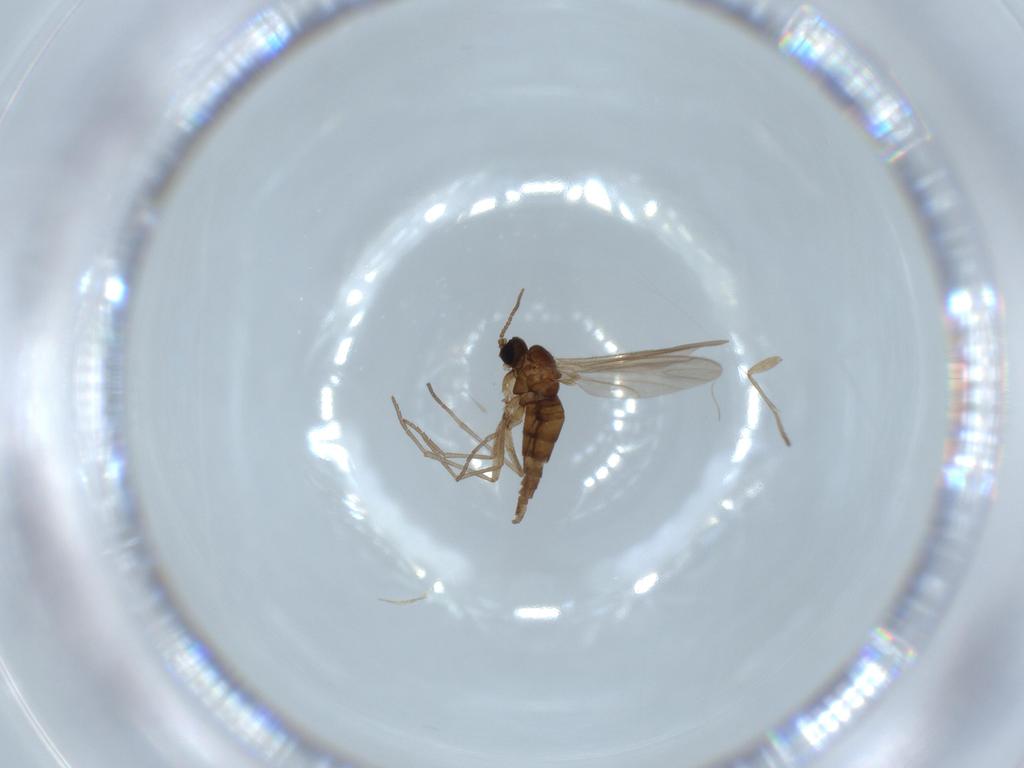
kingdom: Animalia
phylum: Arthropoda
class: Insecta
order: Diptera
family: Sciaridae
